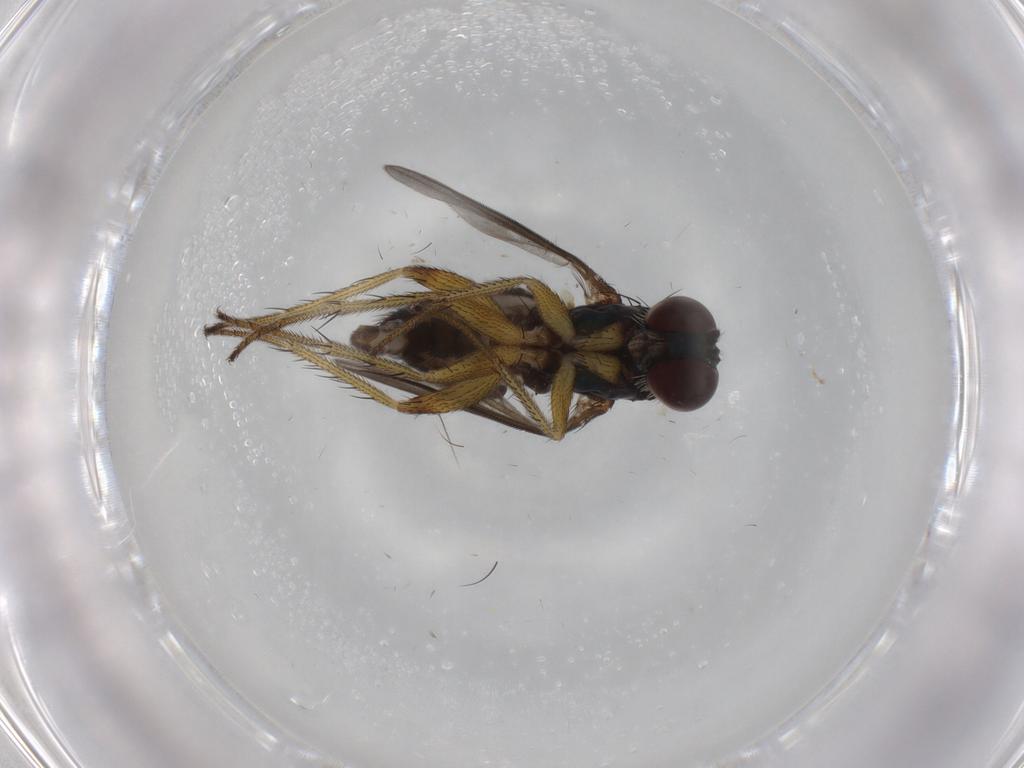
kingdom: Animalia
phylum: Arthropoda
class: Insecta
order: Diptera
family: Dolichopodidae
